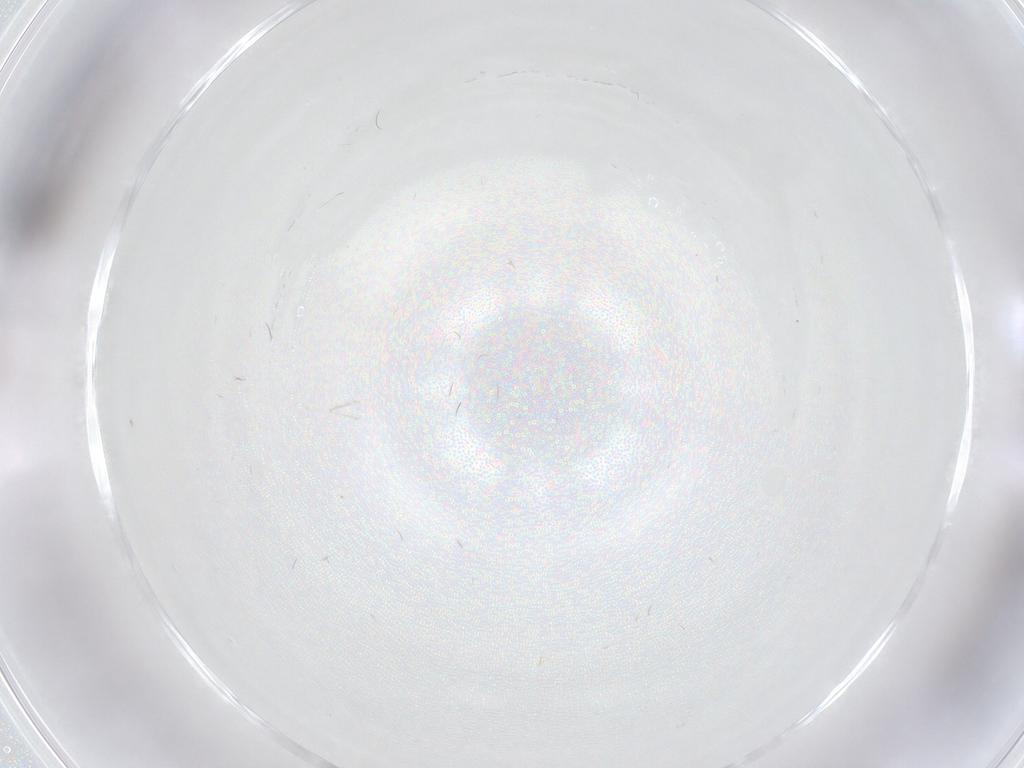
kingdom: Animalia
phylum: Arthropoda
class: Insecta
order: Diptera
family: Cecidomyiidae
